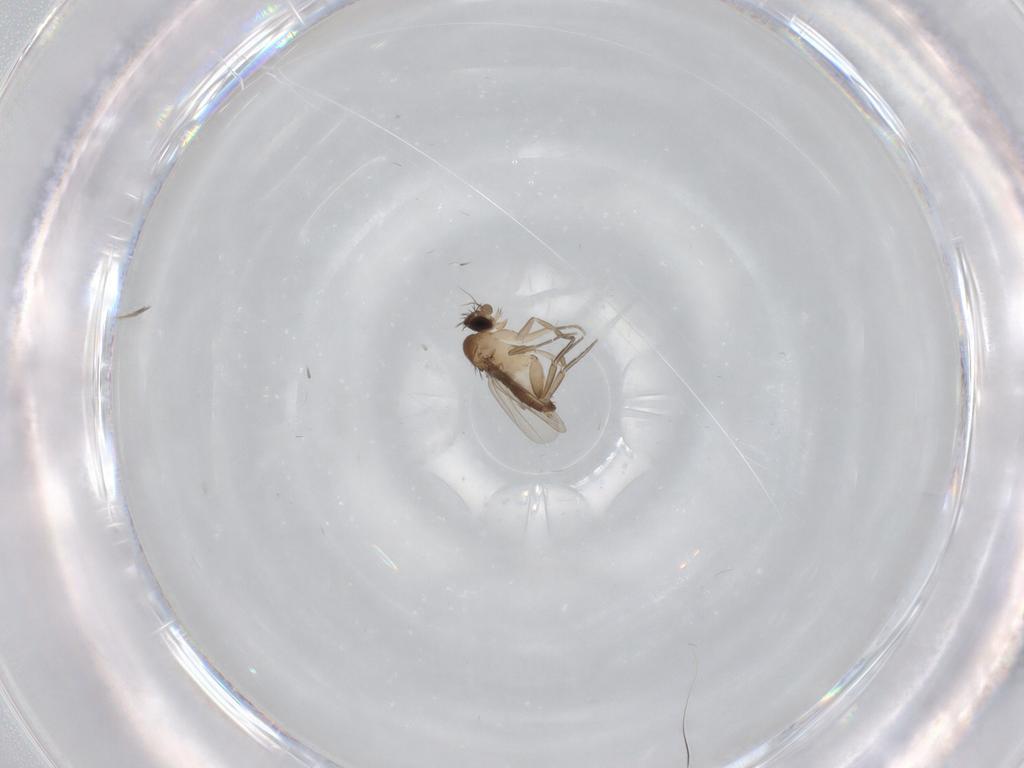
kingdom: Animalia
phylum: Arthropoda
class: Insecta
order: Diptera
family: Phoridae
